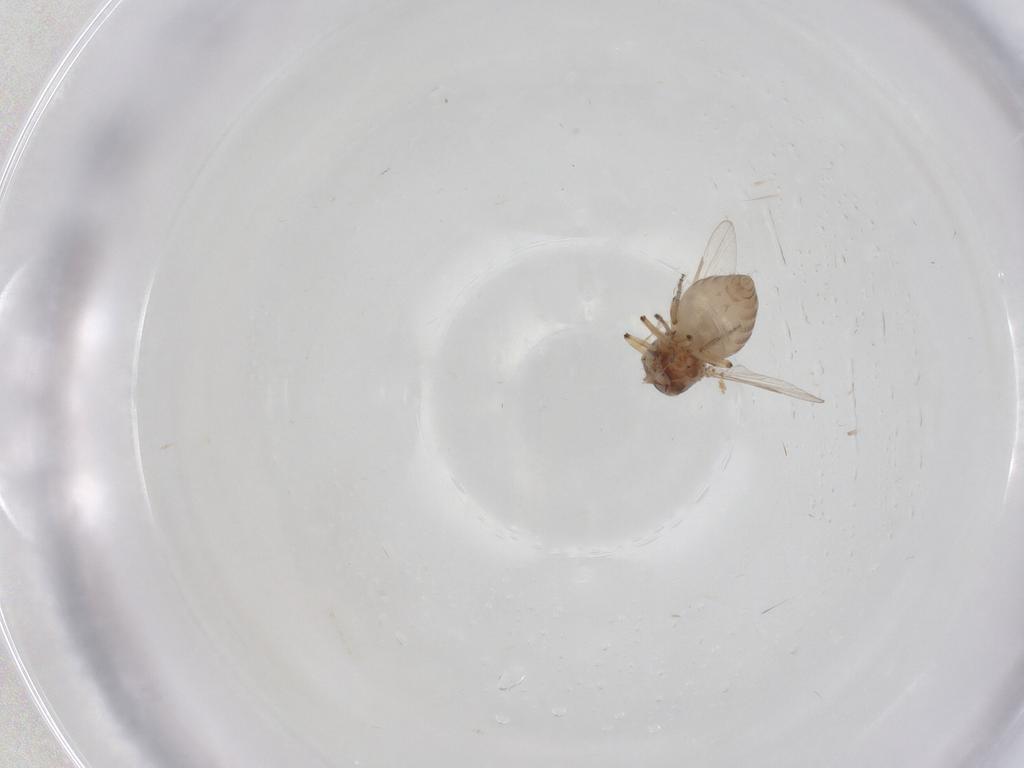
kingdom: Animalia
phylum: Arthropoda
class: Insecta
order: Diptera
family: Ceratopogonidae
